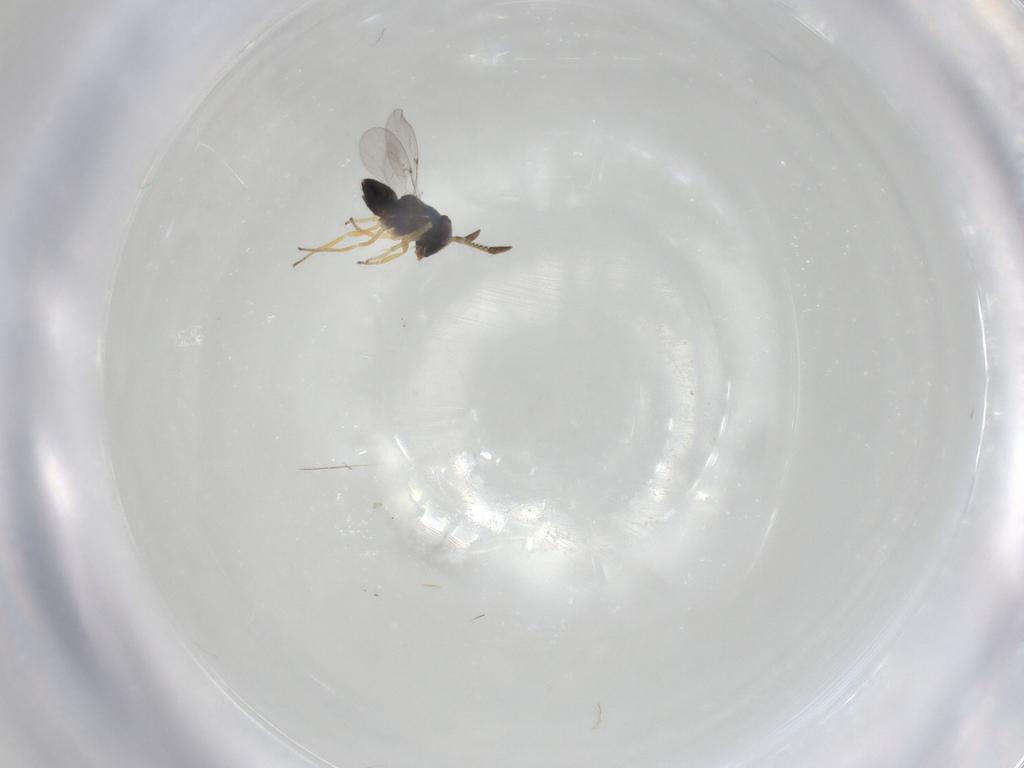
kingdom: Animalia
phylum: Arthropoda
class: Insecta
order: Hymenoptera
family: Encyrtidae
